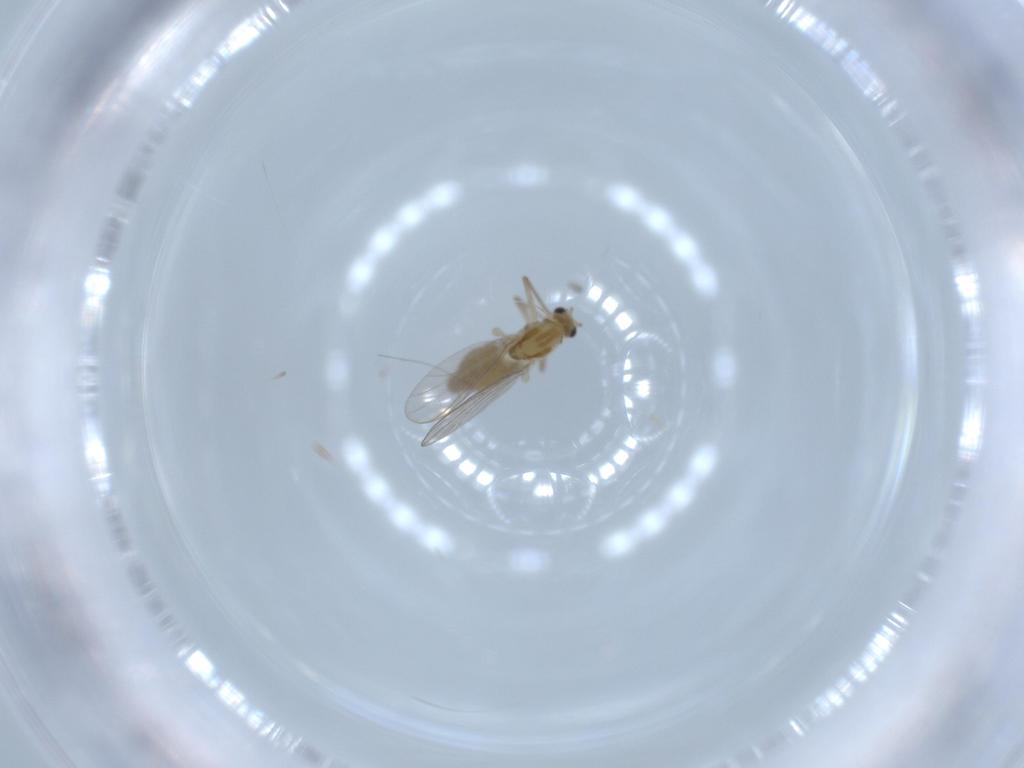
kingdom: Animalia
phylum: Arthropoda
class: Insecta
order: Diptera
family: Chironomidae
